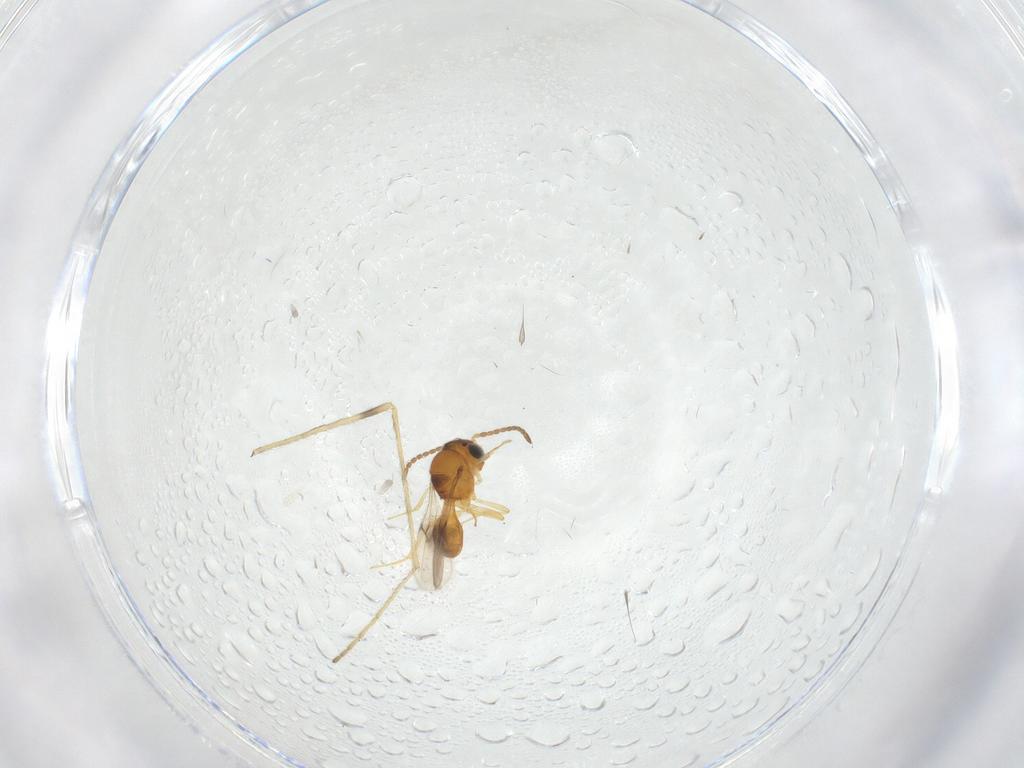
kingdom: Animalia
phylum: Arthropoda
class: Insecta
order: Hymenoptera
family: Scelionidae
